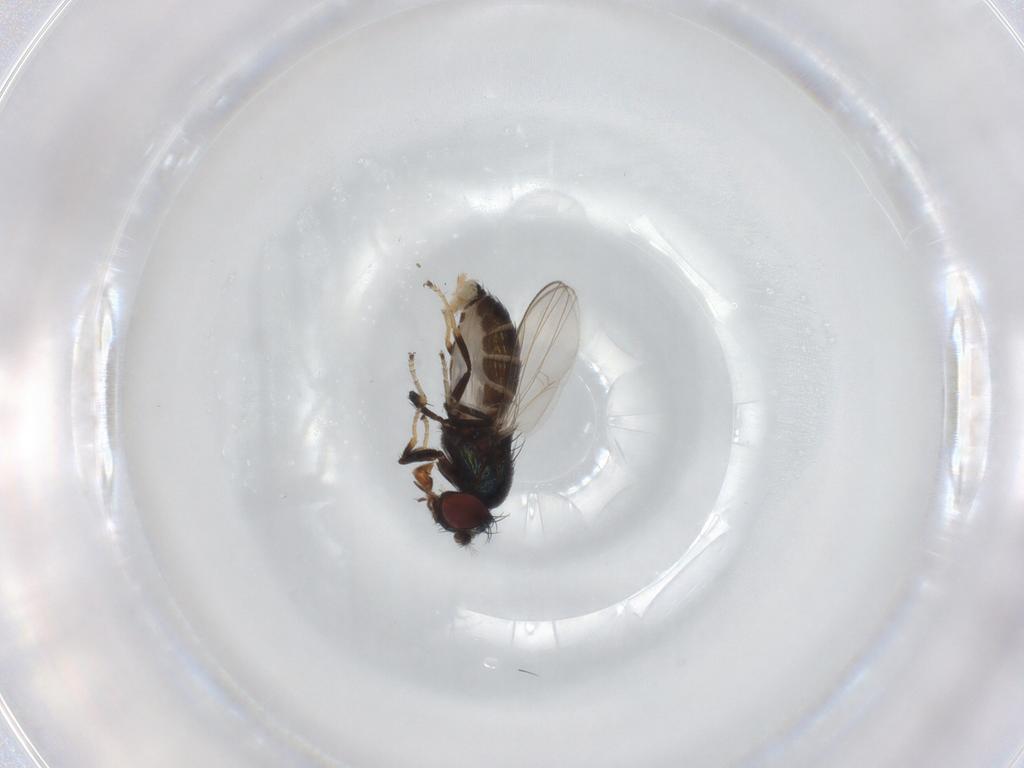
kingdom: Animalia
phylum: Arthropoda
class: Insecta
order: Diptera
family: Ephydridae
